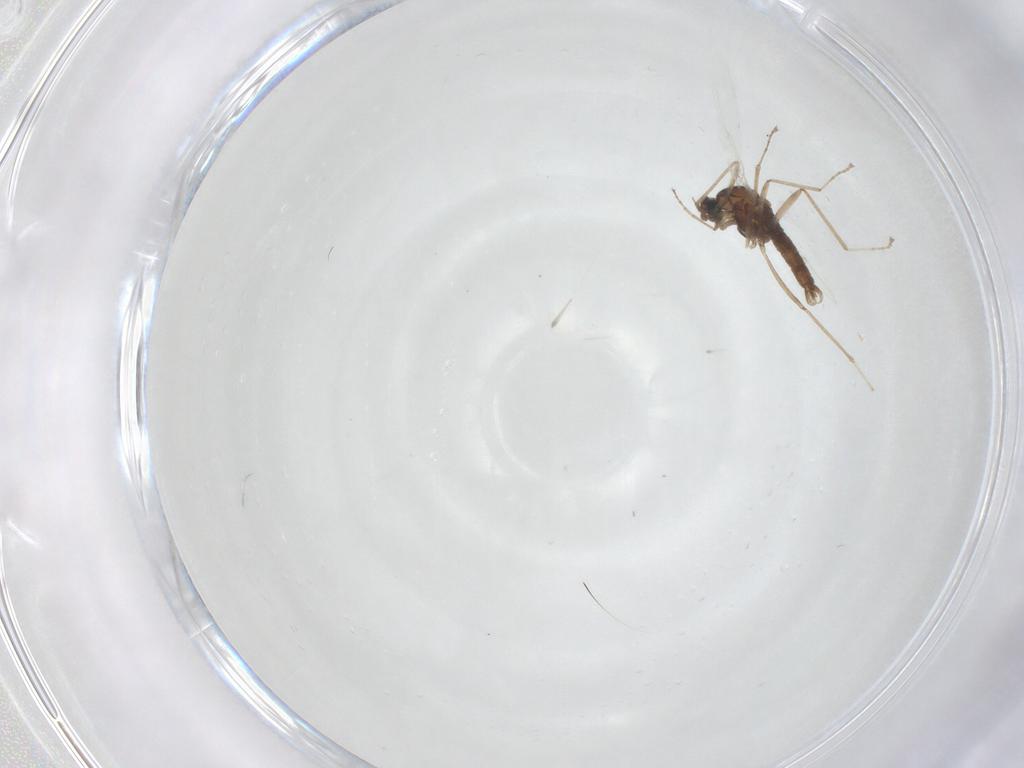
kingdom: Animalia
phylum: Arthropoda
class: Insecta
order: Diptera
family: Cecidomyiidae
